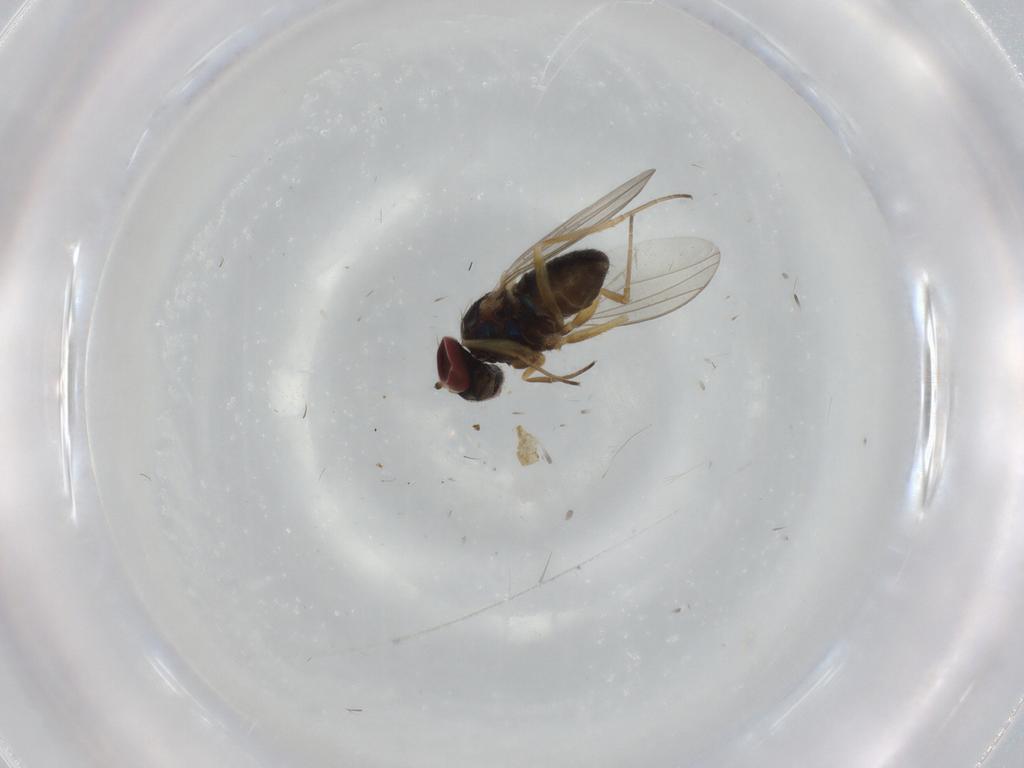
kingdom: Animalia
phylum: Arthropoda
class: Insecta
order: Diptera
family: Dolichopodidae
